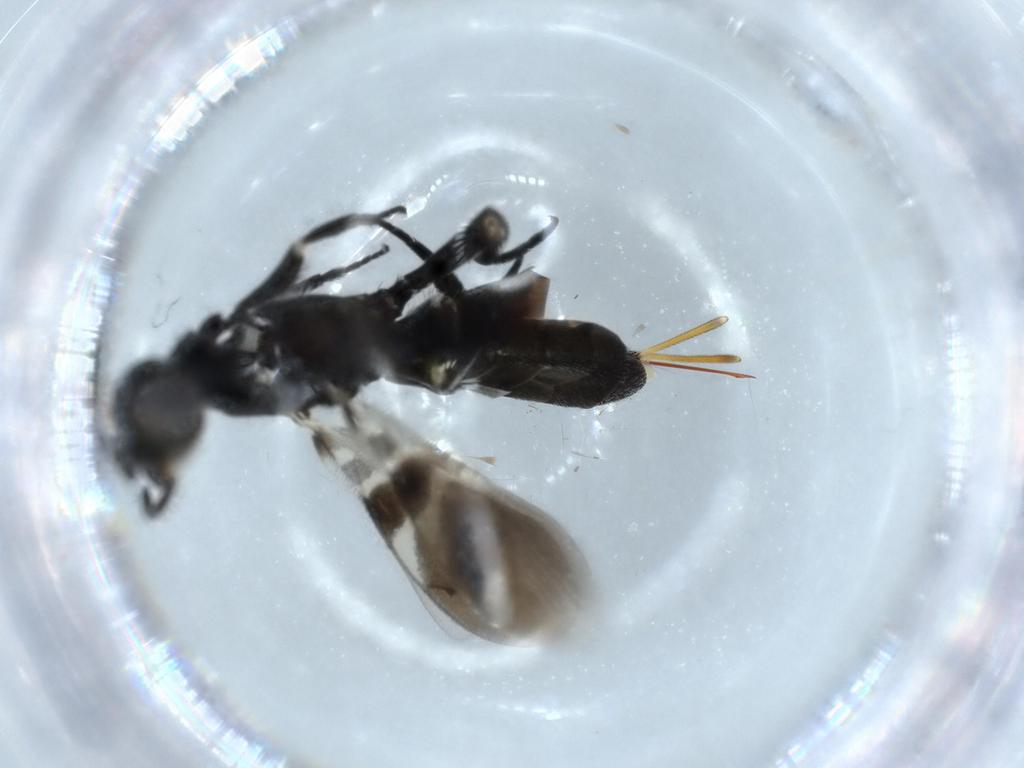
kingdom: Animalia
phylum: Arthropoda
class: Insecta
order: Hymenoptera
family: Eupelmidae
